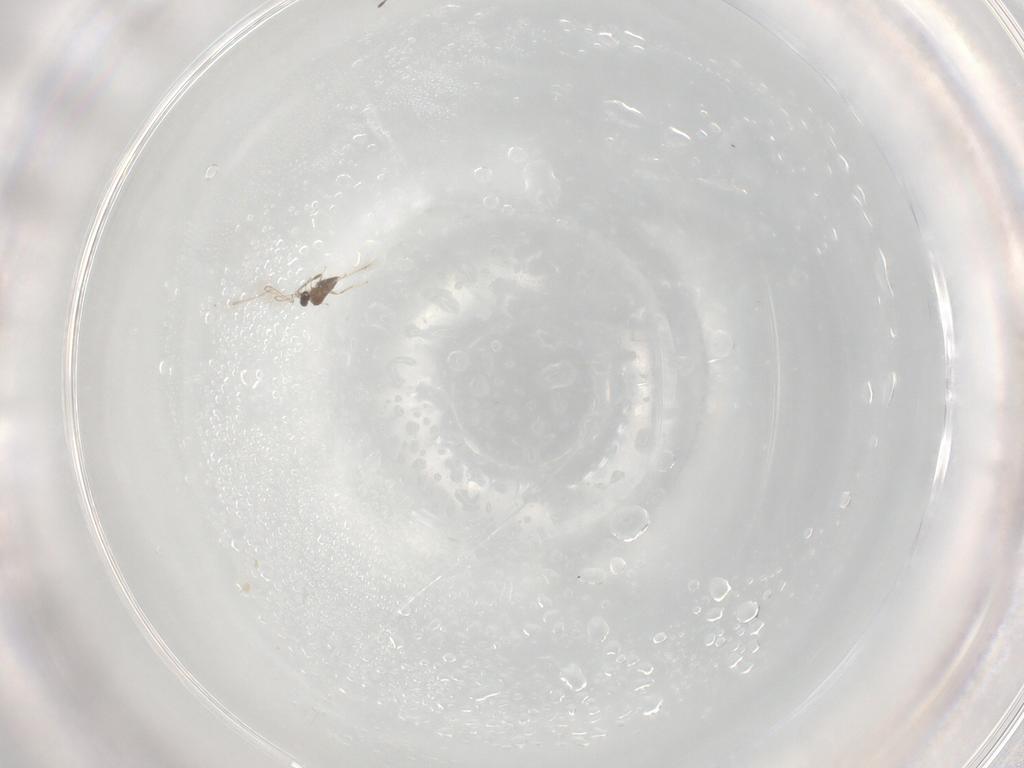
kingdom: Animalia
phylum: Arthropoda
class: Insecta
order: Hymenoptera
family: Mymaridae
